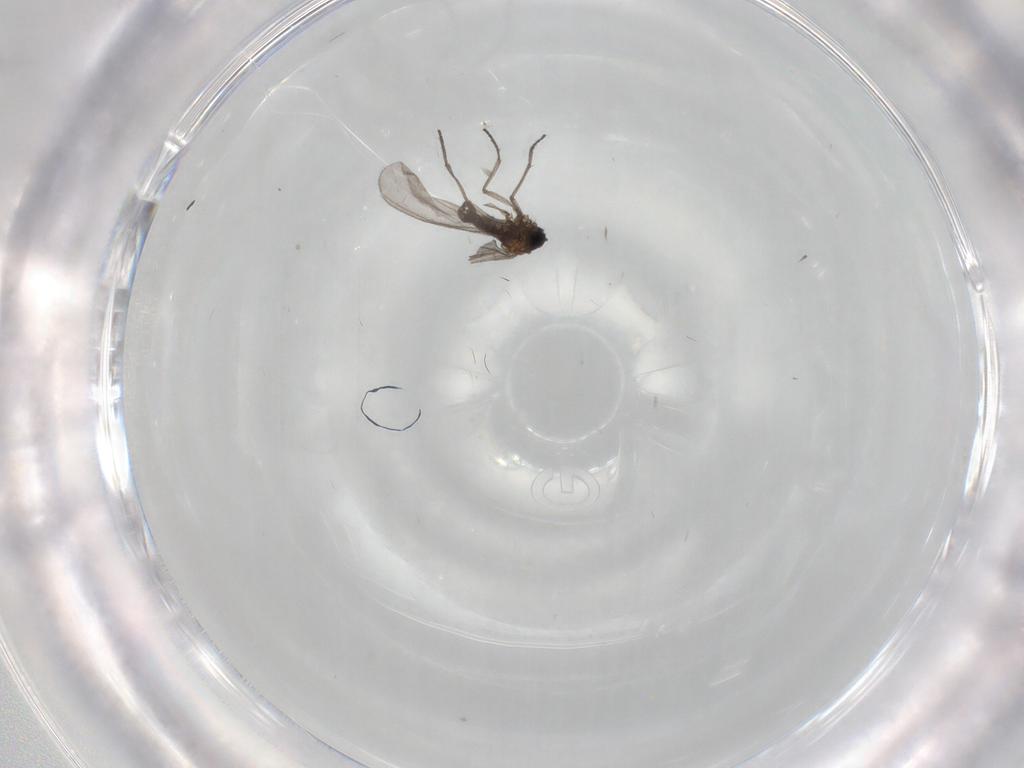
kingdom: Animalia
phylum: Arthropoda
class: Insecta
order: Diptera
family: Sciaridae
